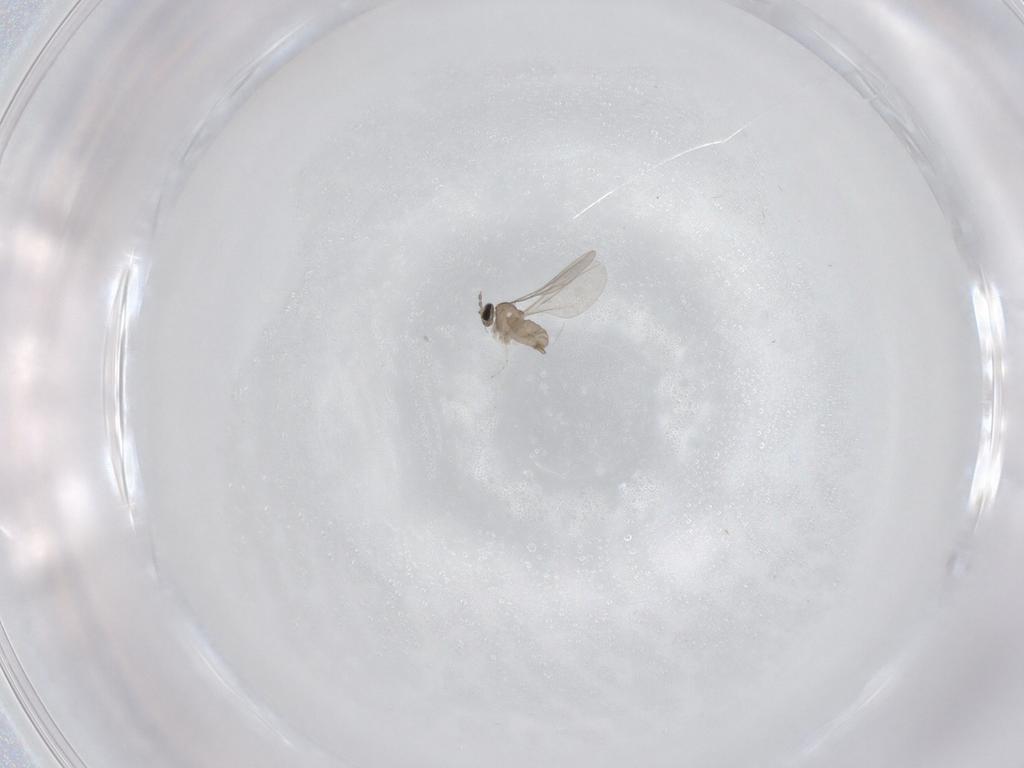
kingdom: Animalia
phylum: Arthropoda
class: Insecta
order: Diptera
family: Cecidomyiidae
